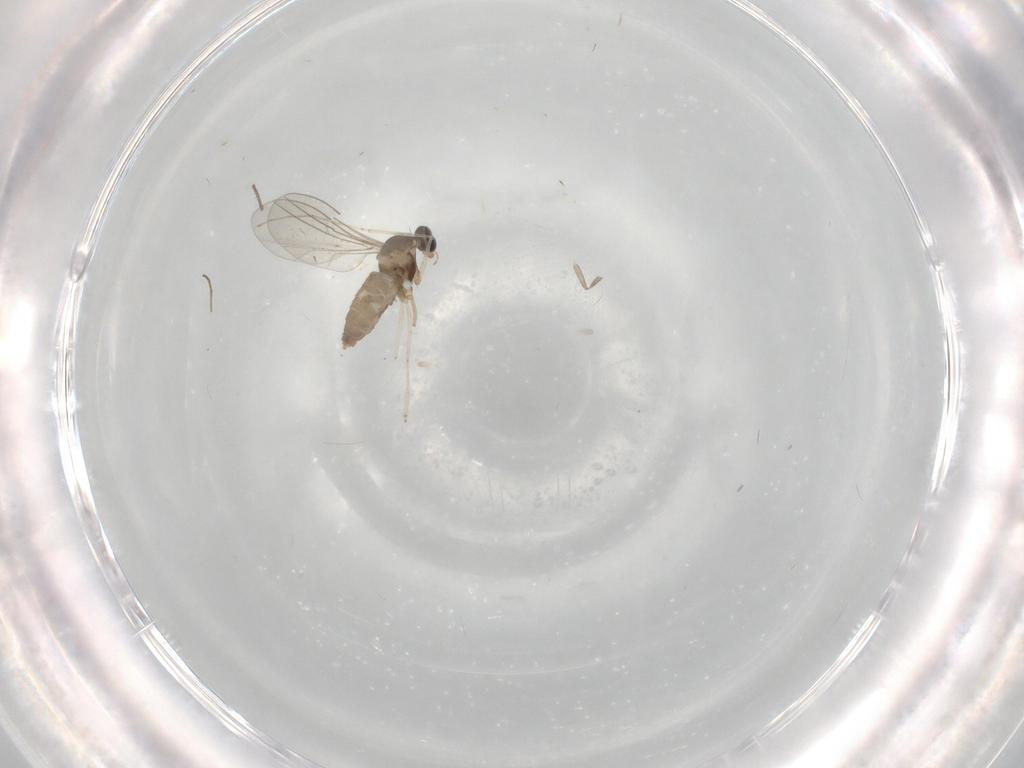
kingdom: Animalia
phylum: Arthropoda
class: Insecta
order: Diptera
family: Psychodidae
